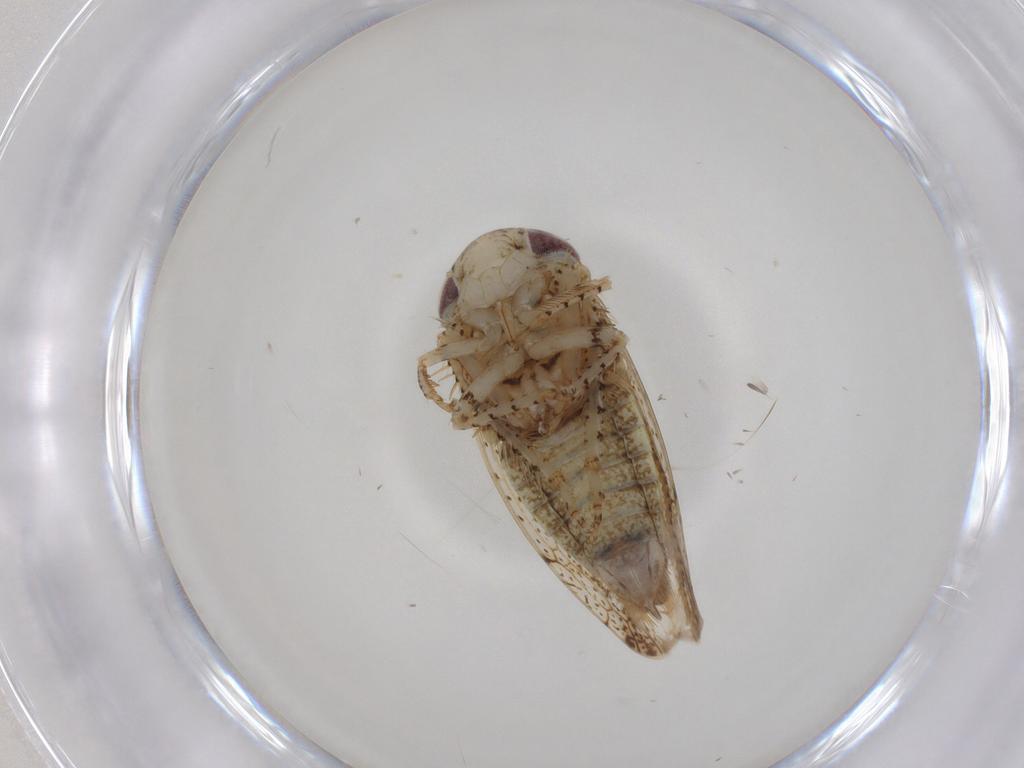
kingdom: Animalia
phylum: Arthropoda
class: Insecta
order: Hemiptera
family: Cicadellidae
